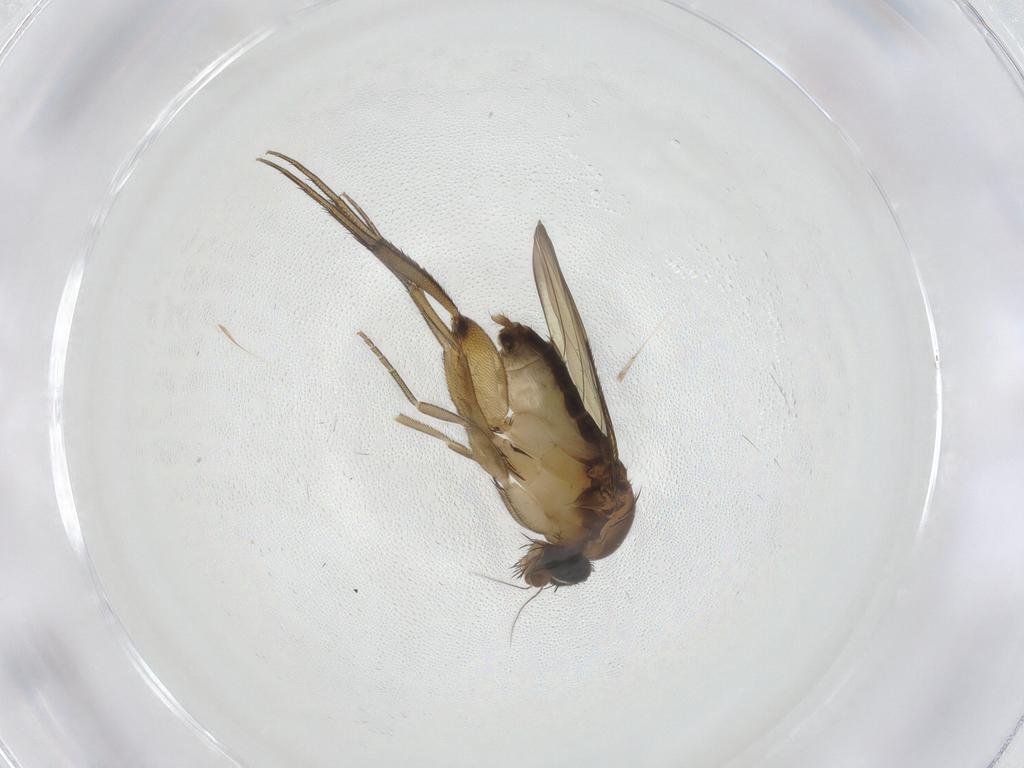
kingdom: Animalia
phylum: Arthropoda
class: Insecta
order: Diptera
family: Phoridae
